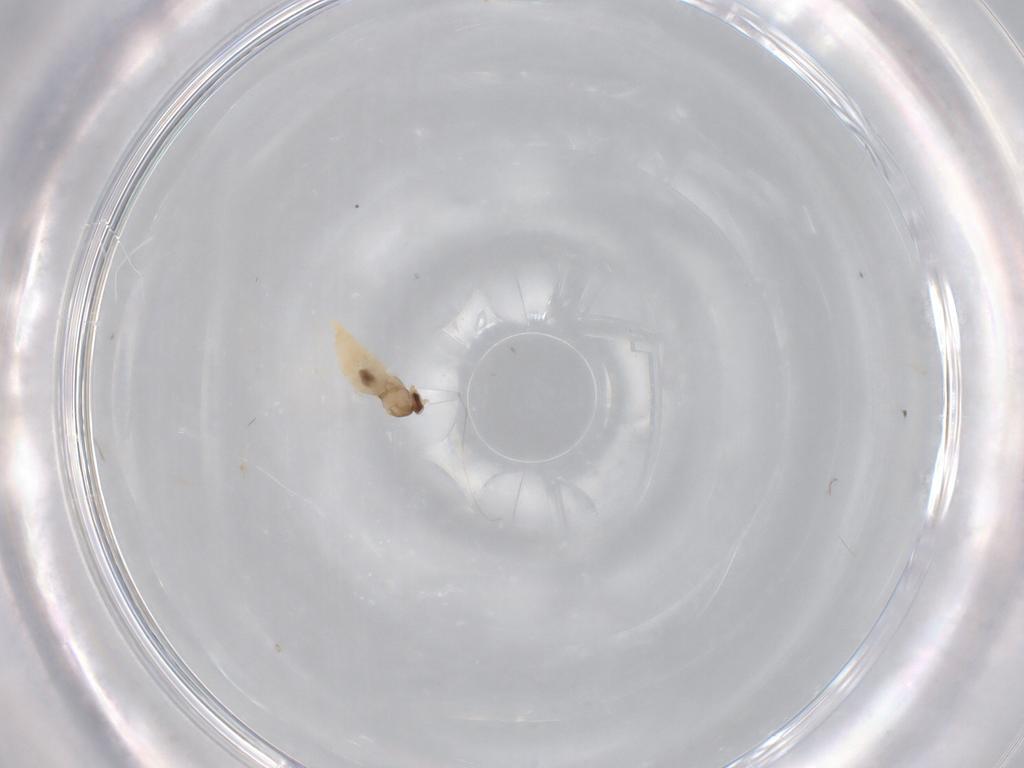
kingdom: Animalia
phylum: Arthropoda
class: Insecta
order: Diptera
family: Cecidomyiidae
